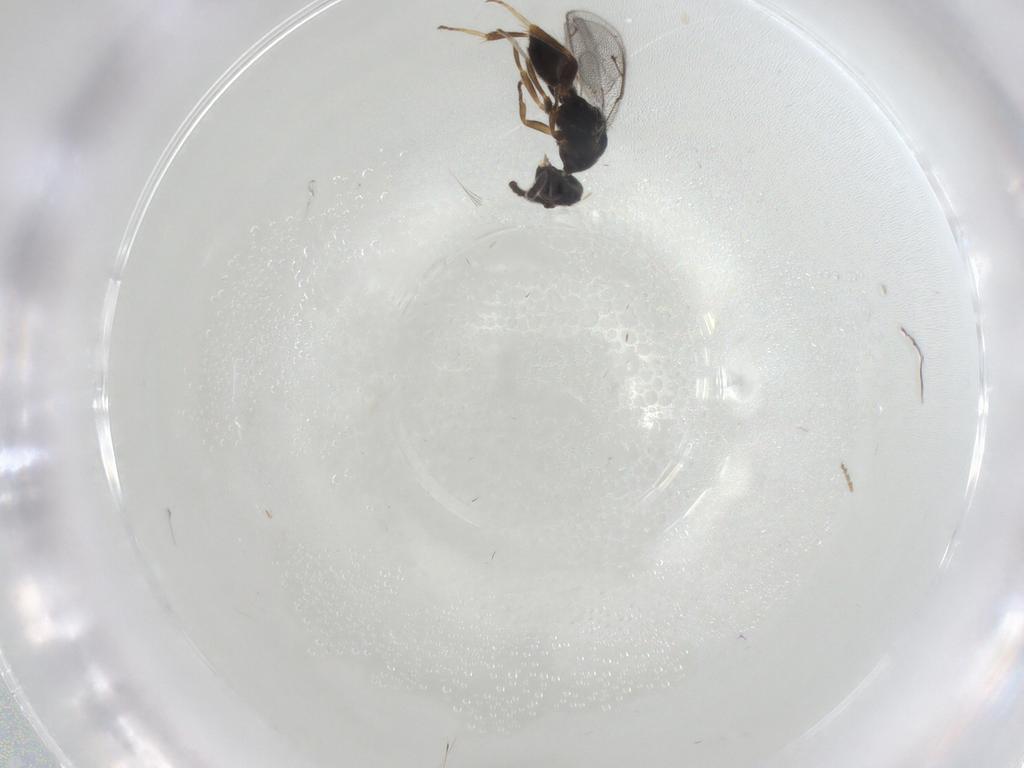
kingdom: Animalia
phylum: Arthropoda
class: Insecta
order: Hymenoptera
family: Cleonyminae
